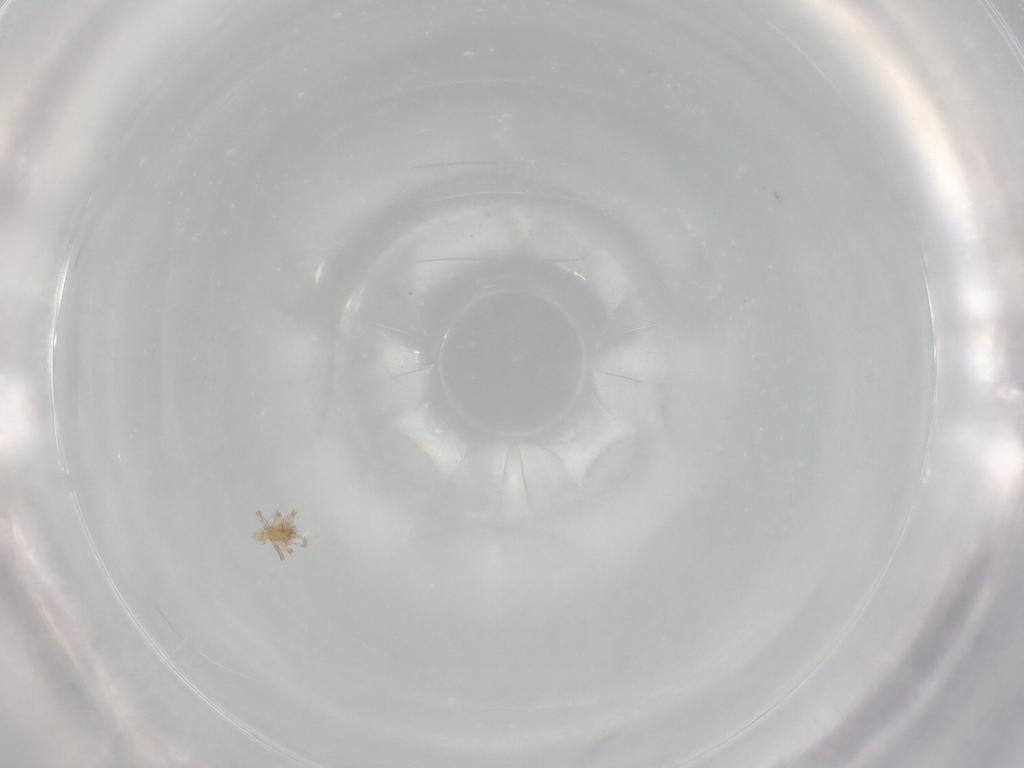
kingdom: Animalia
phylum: Arthropoda
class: Arachnida
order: Trombidiformes
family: Erythraeidae
